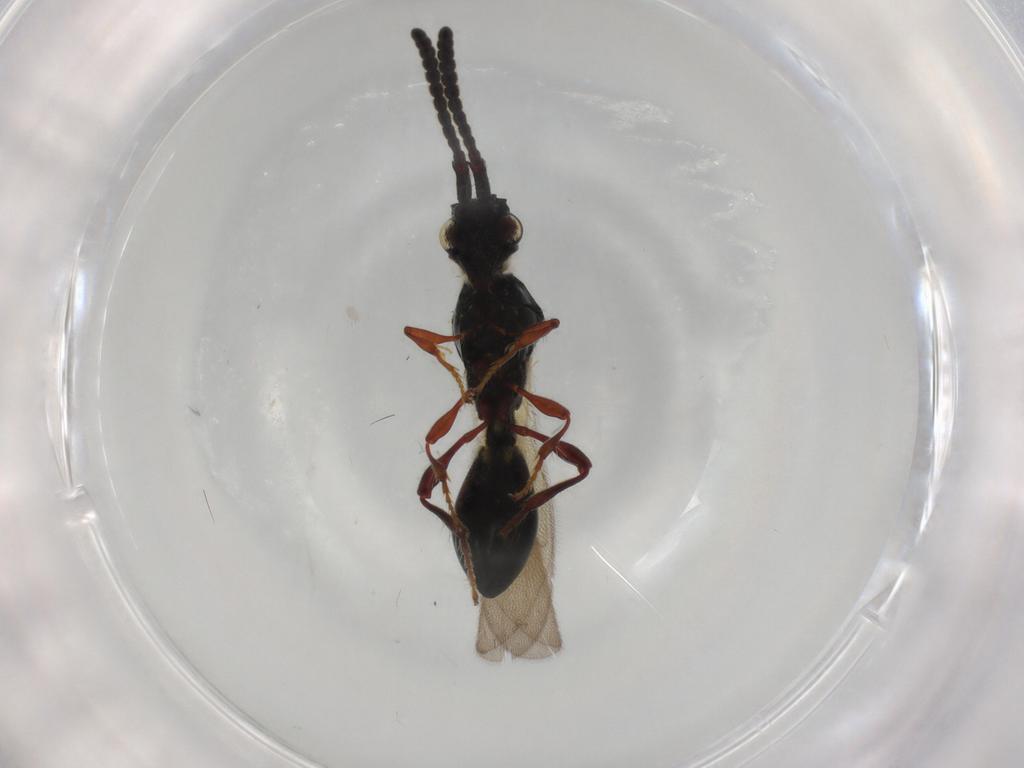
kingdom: Animalia
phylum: Arthropoda
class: Insecta
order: Hymenoptera
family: Diapriidae
